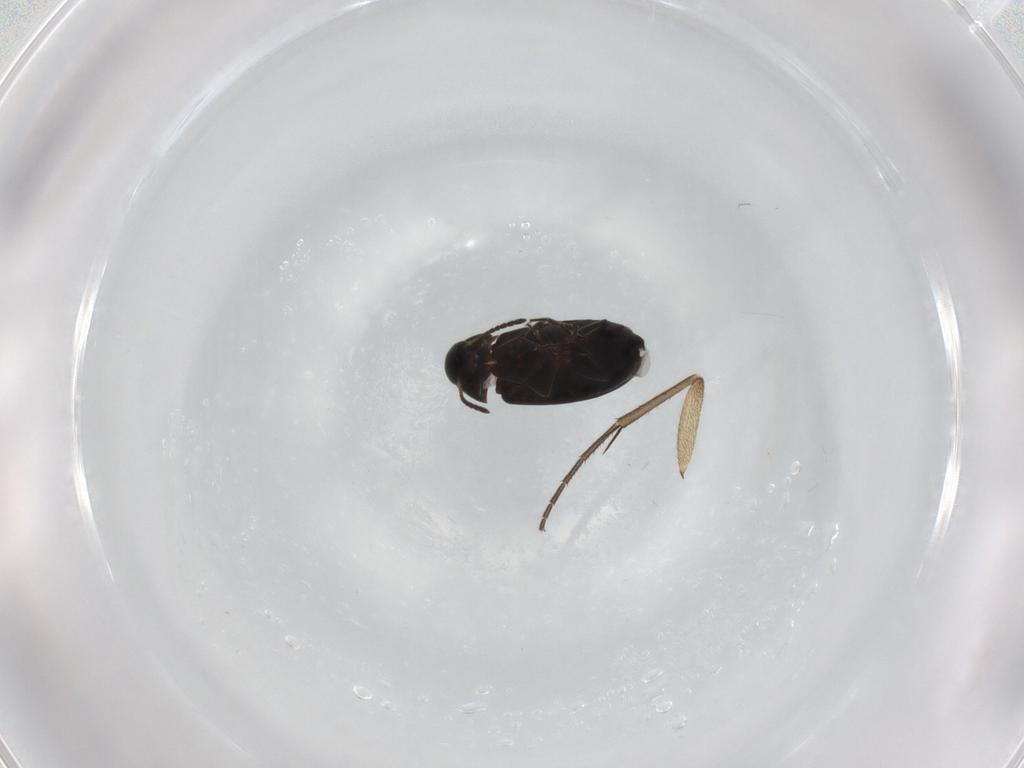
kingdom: Animalia
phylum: Arthropoda
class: Insecta
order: Coleoptera
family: Scraptiidae
